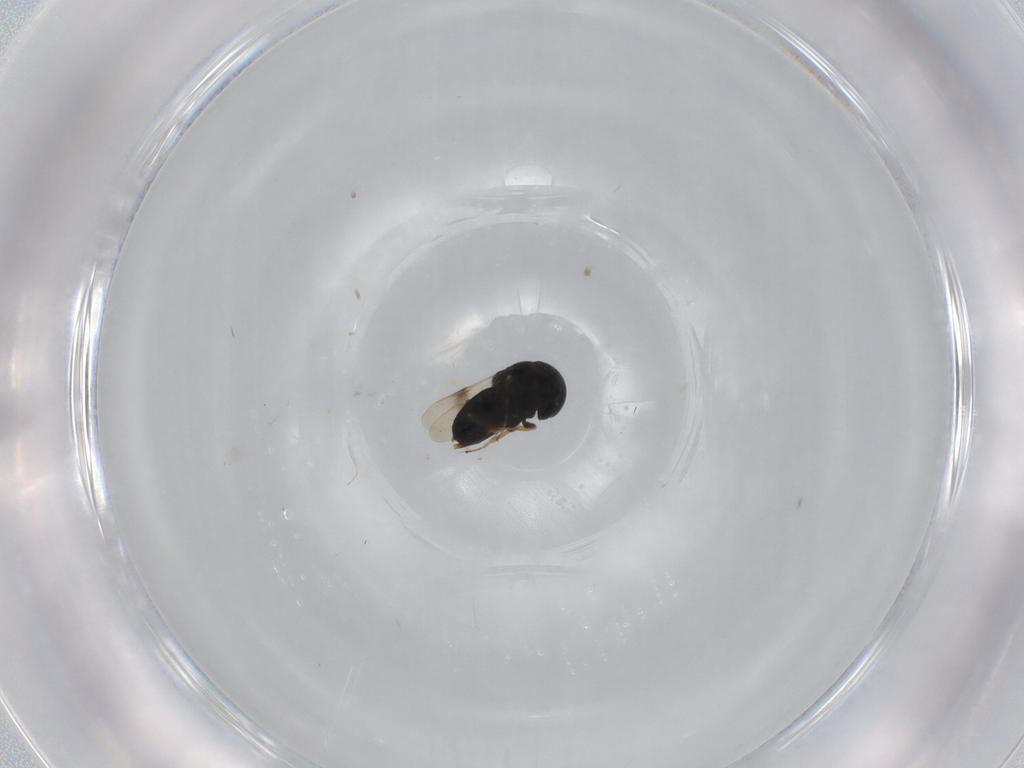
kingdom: Animalia
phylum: Arthropoda
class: Insecta
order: Hymenoptera
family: Scelionidae
